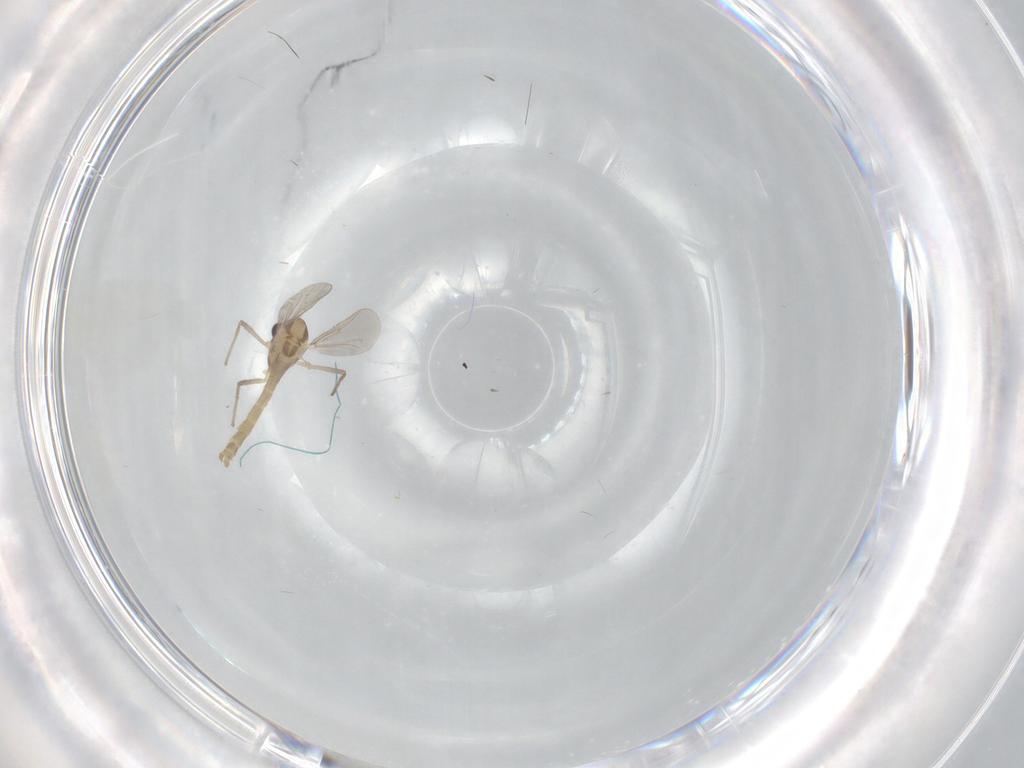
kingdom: Animalia
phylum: Arthropoda
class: Insecta
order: Diptera
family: Chironomidae
